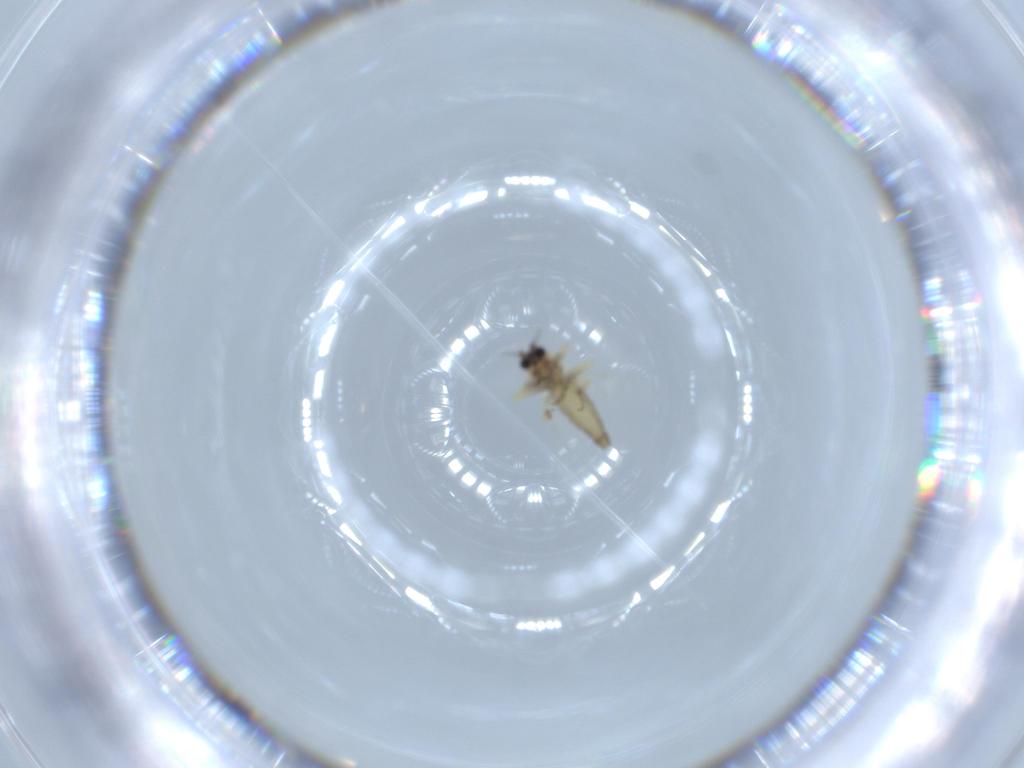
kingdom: Animalia
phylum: Arthropoda
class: Insecta
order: Diptera
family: Ceratopogonidae
